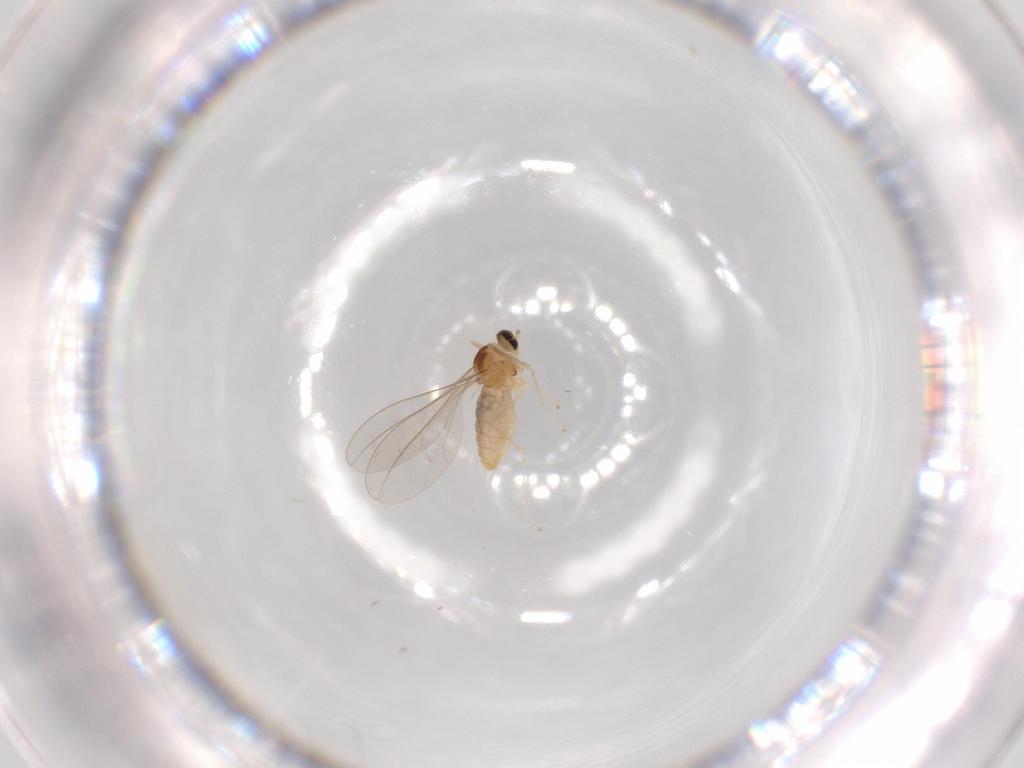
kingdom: Animalia
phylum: Arthropoda
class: Insecta
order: Diptera
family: Cecidomyiidae
